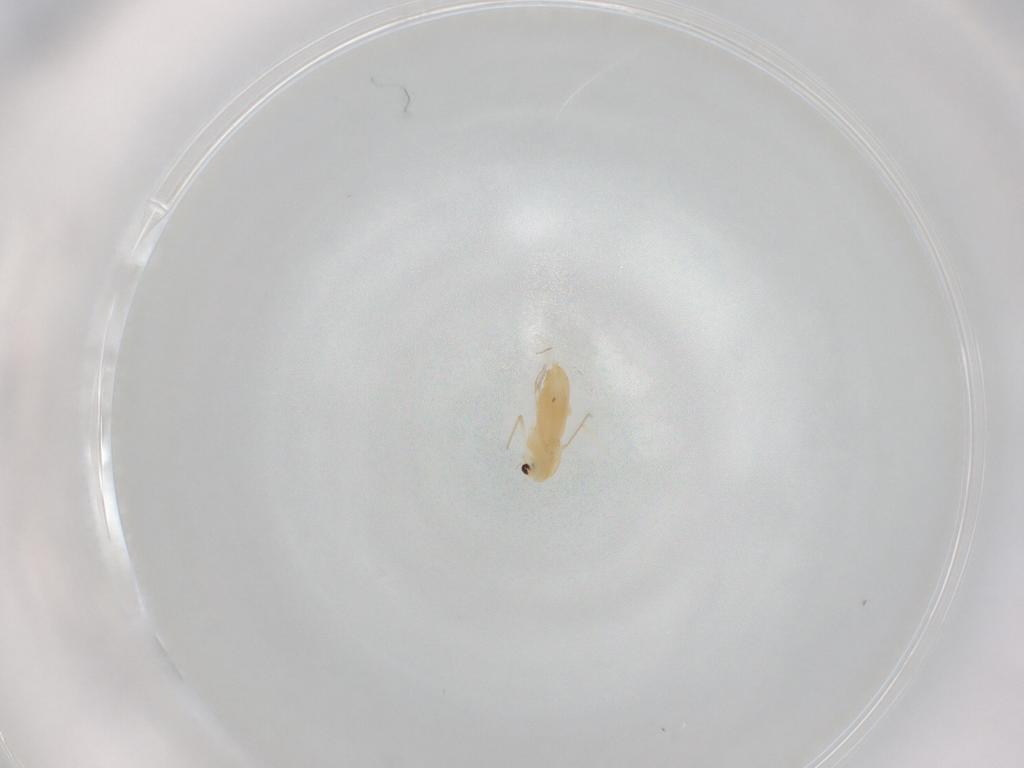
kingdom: Animalia
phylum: Arthropoda
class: Insecta
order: Diptera
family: Chironomidae
